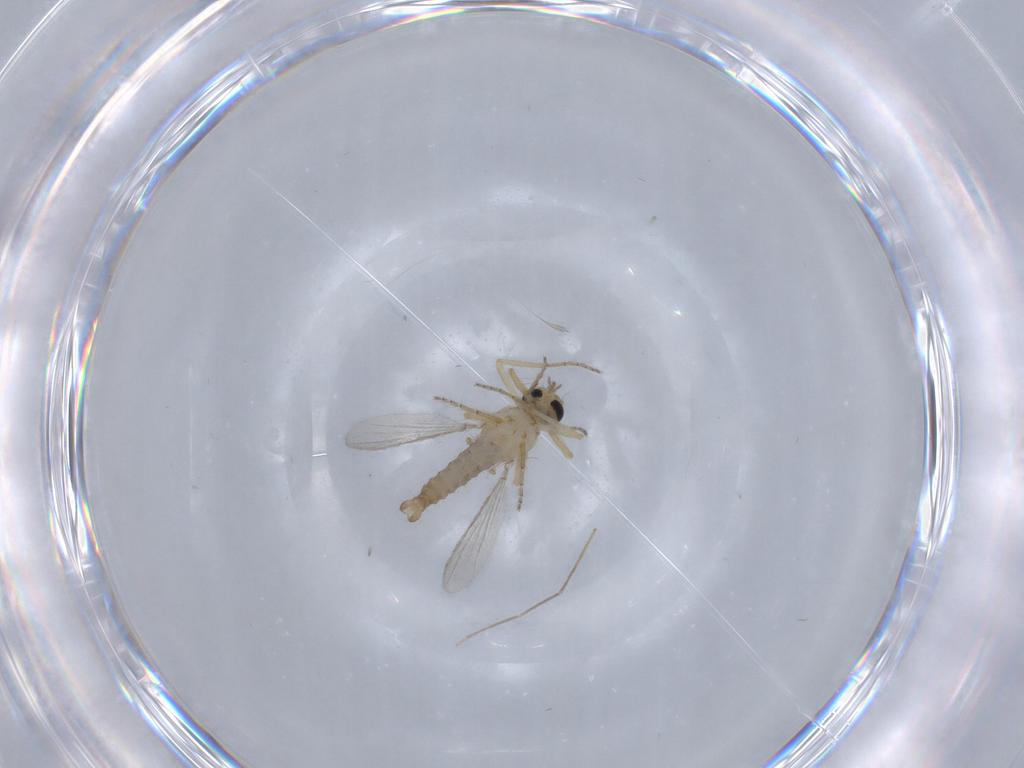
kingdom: Animalia
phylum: Arthropoda
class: Insecta
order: Diptera
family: Ceratopogonidae
